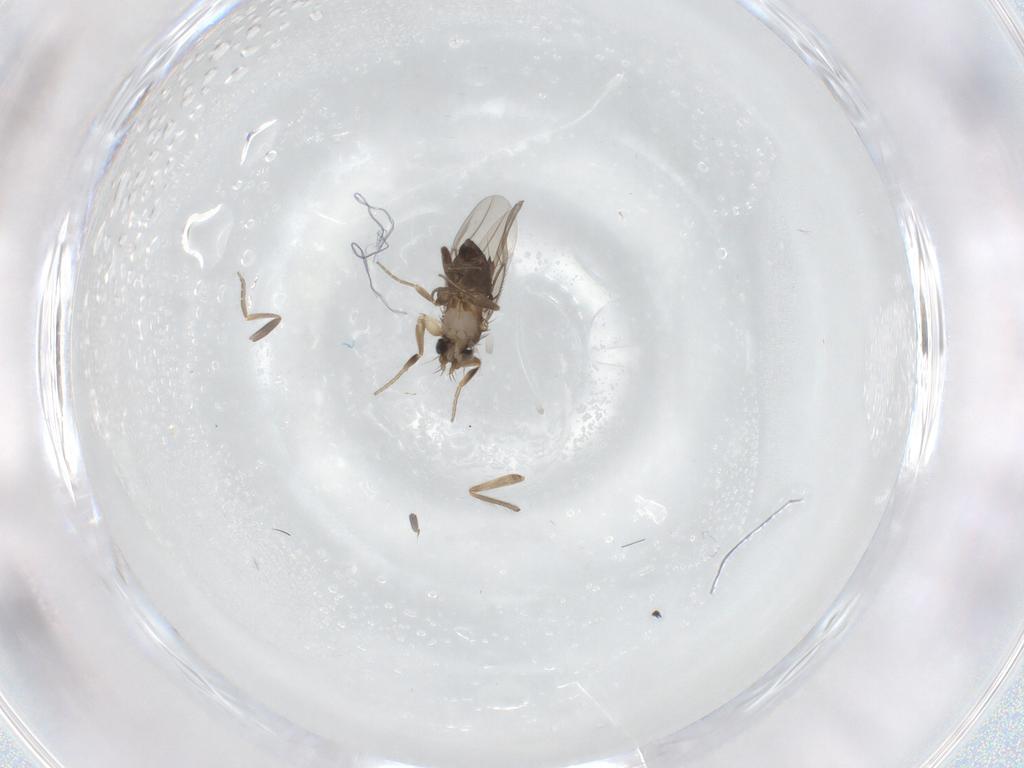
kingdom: Animalia
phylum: Arthropoda
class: Insecta
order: Diptera
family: Phoridae
